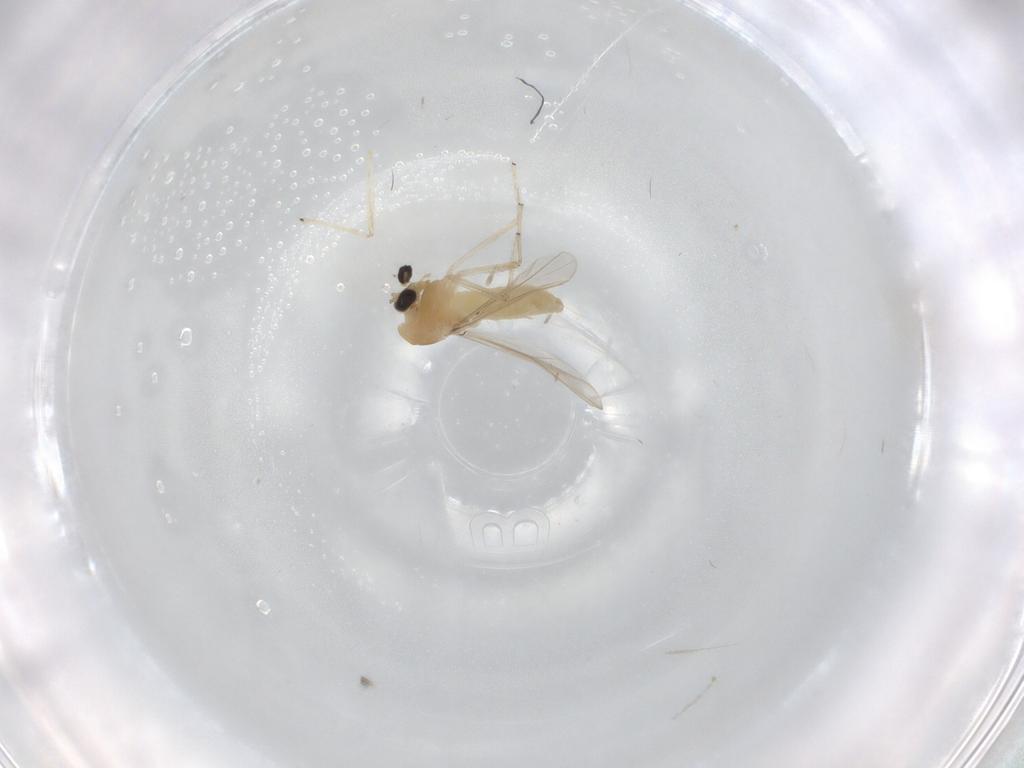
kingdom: Animalia
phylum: Arthropoda
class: Insecta
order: Diptera
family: Cecidomyiidae
